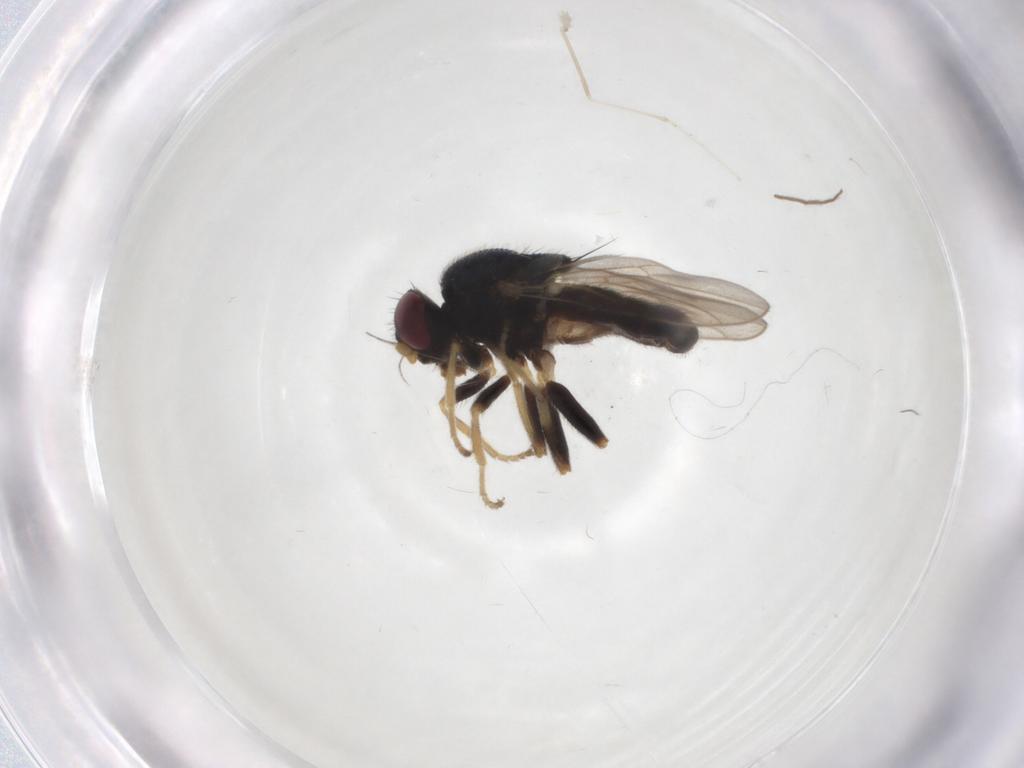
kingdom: Animalia
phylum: Arthropoda
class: Insecta
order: Diptera
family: Chloropidae
